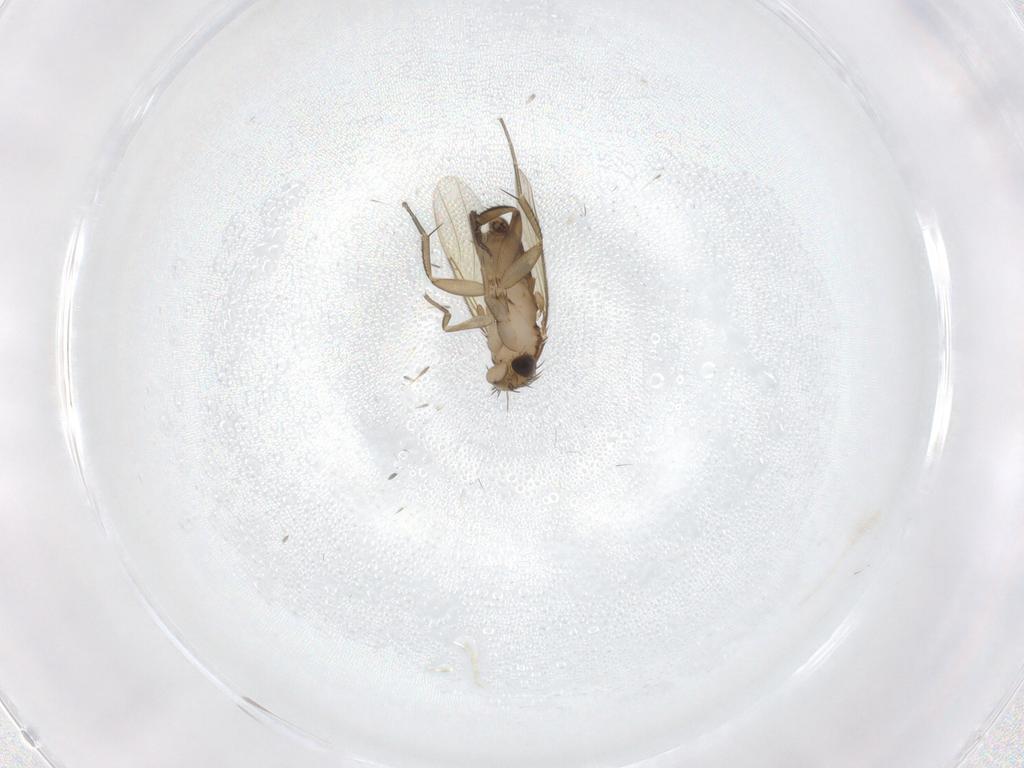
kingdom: Animalia
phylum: Arthropoda
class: Insecta
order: Diptera
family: Phoridae
